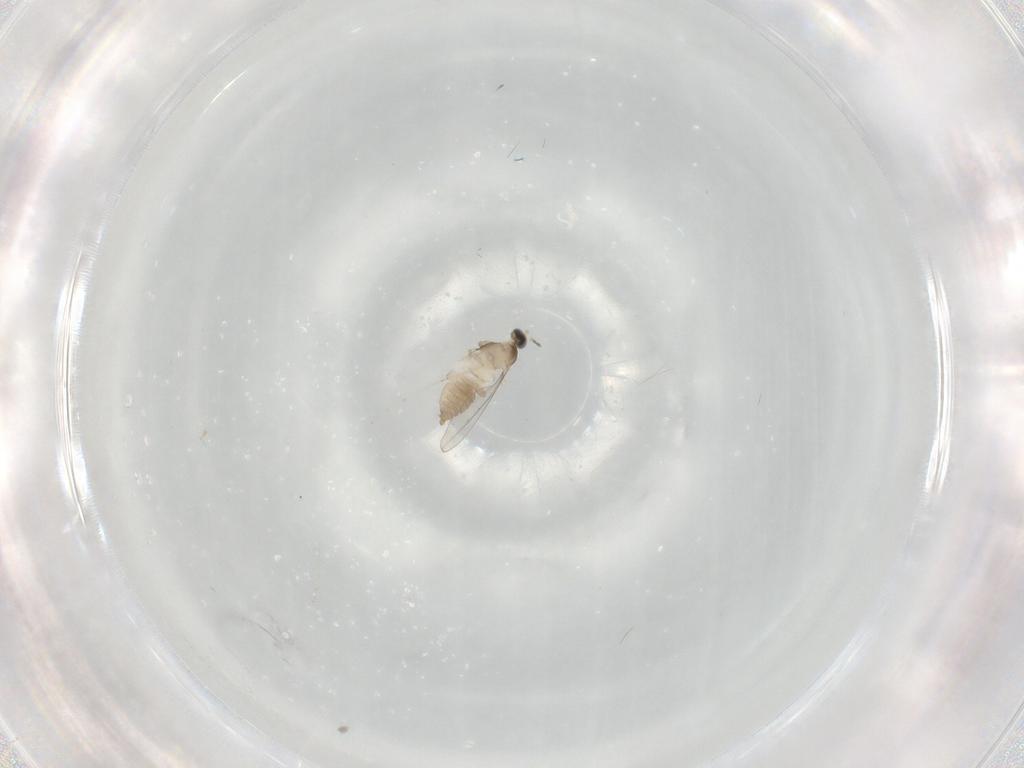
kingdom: Animalia
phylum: Arthropoda
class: Insecta
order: Diptera
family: Cecidomyiidae
